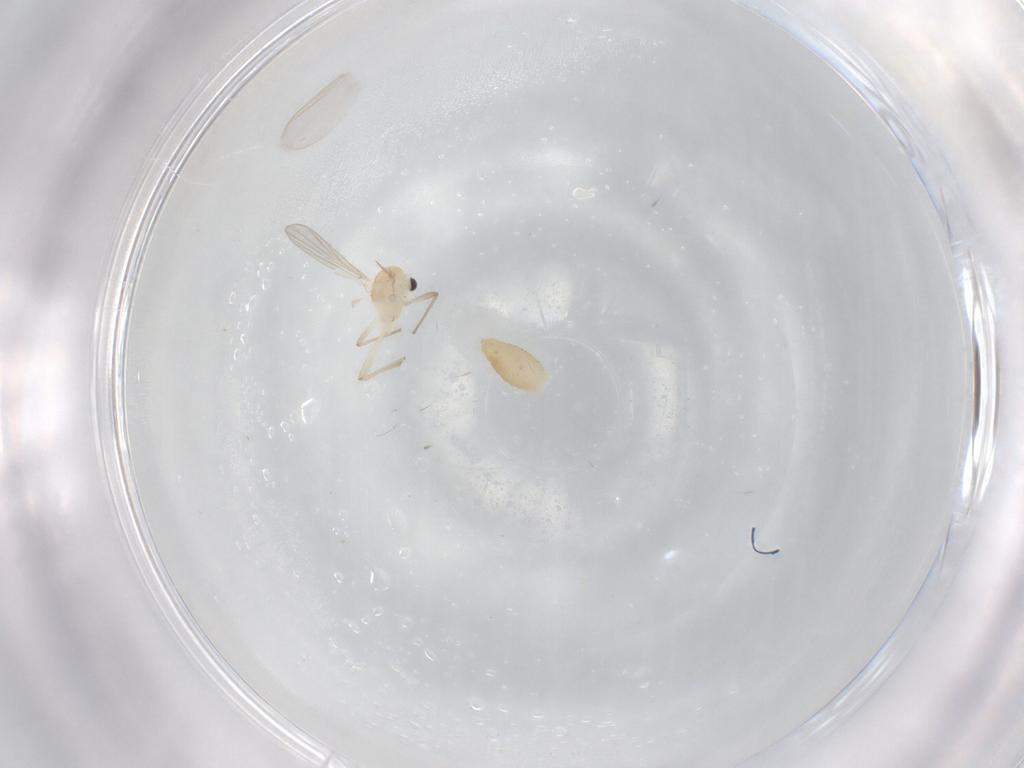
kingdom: Animalia
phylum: Arthropoda
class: Insecta
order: Diptera
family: Chironomidae
